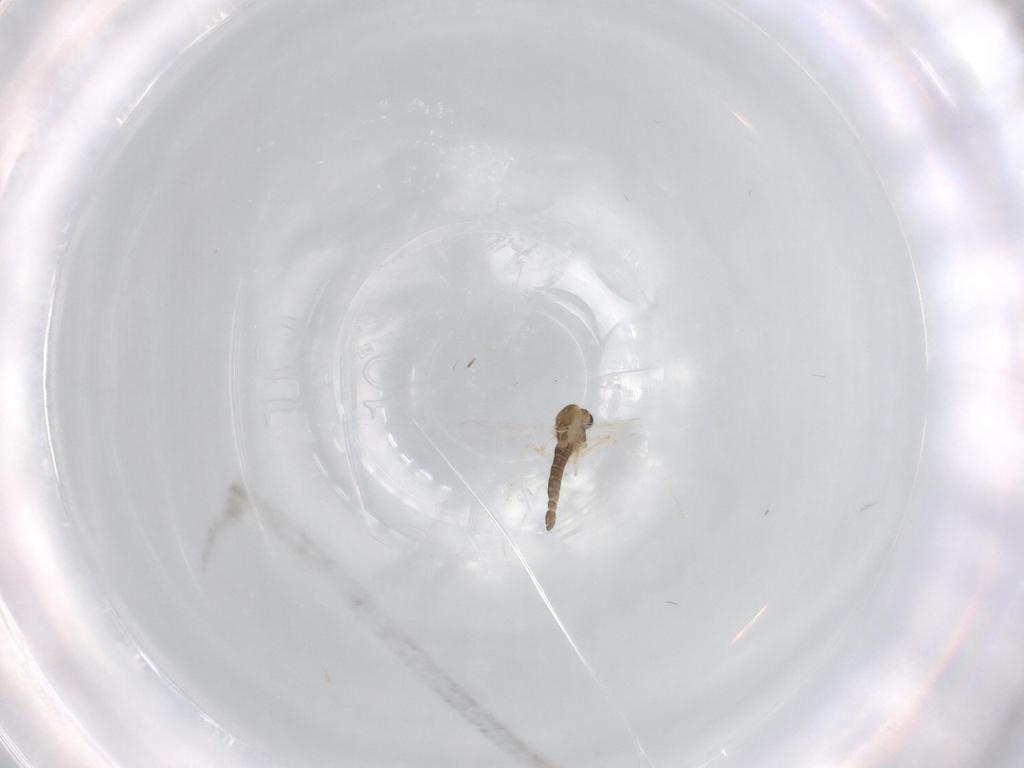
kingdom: Animalia
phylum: Arthropoda
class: Insecta
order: Diptera
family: Chironomidae
